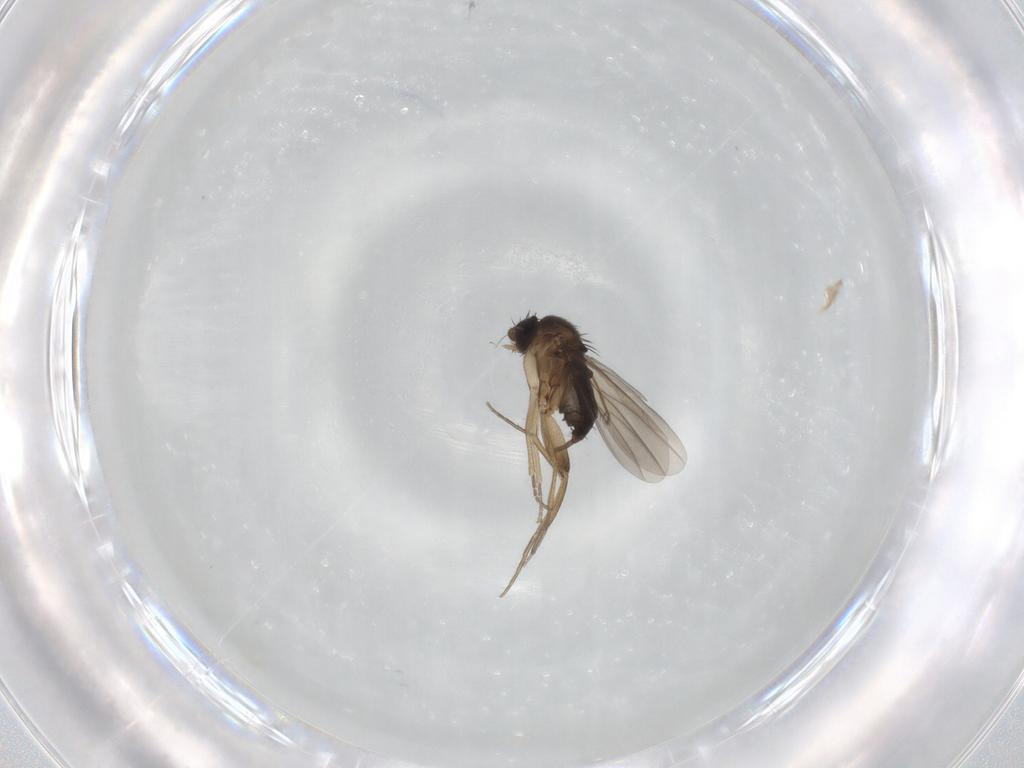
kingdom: Animalia
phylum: Arthropoda
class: Insecta
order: Diptera
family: Phoridae
